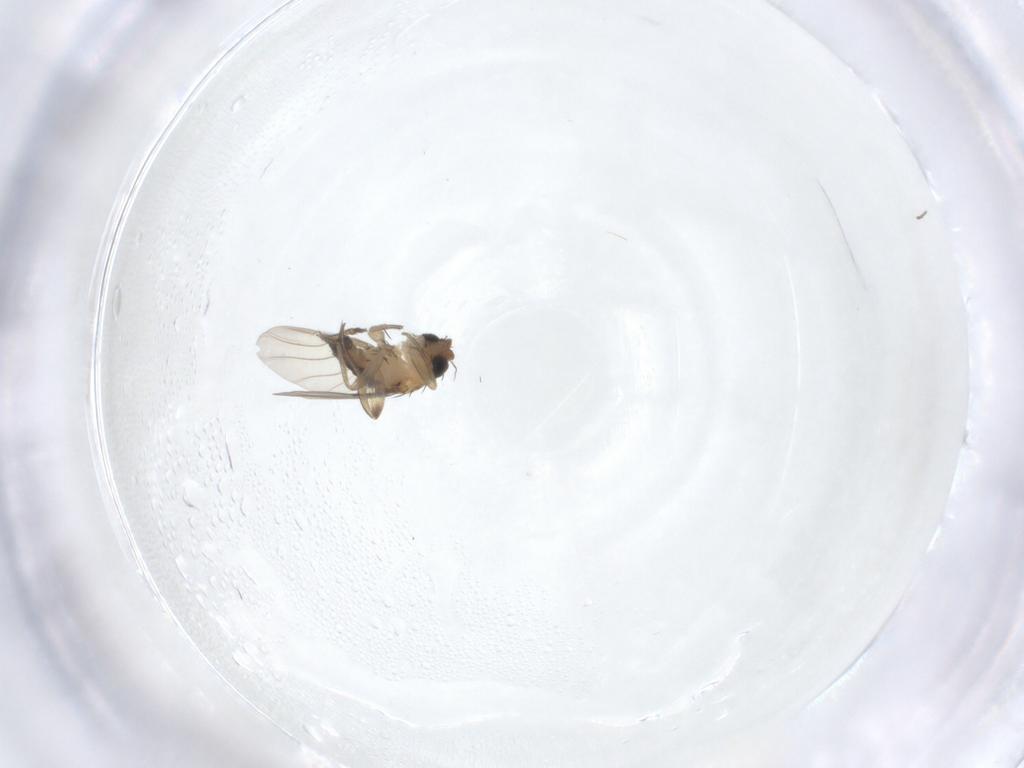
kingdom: Animalia
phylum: Arthropoda
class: Insecta
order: Diptera
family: Phoridae
